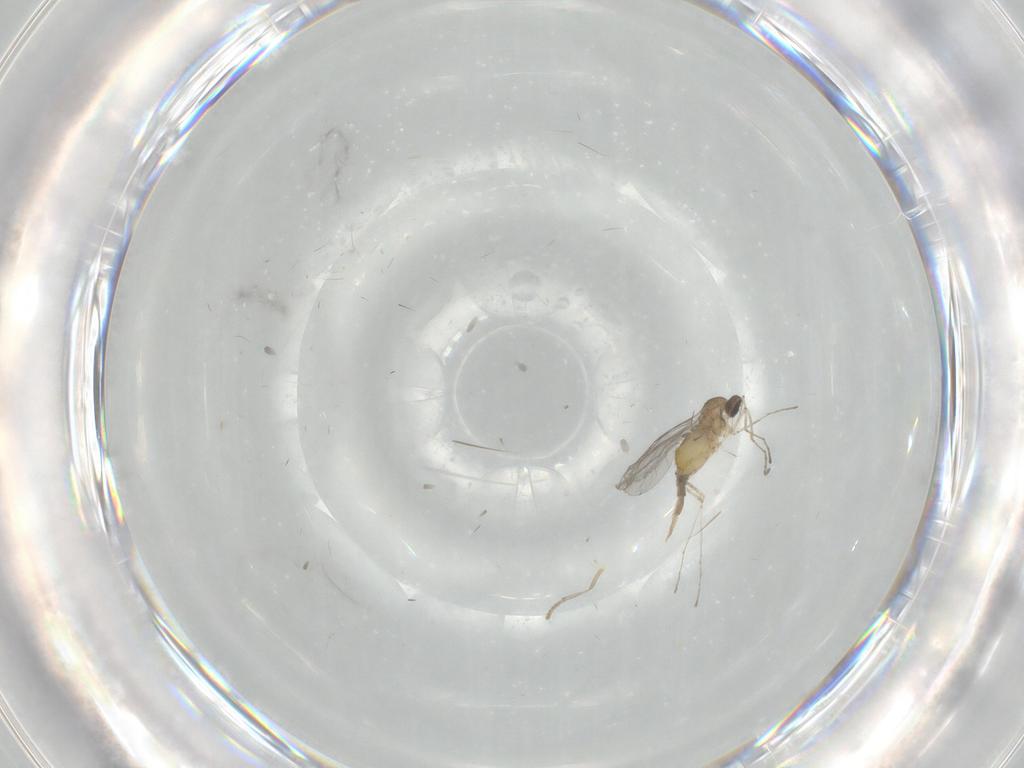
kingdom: Animalia
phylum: Arthropoda
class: Insecta
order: Diptera
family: Cecidomyiidae
